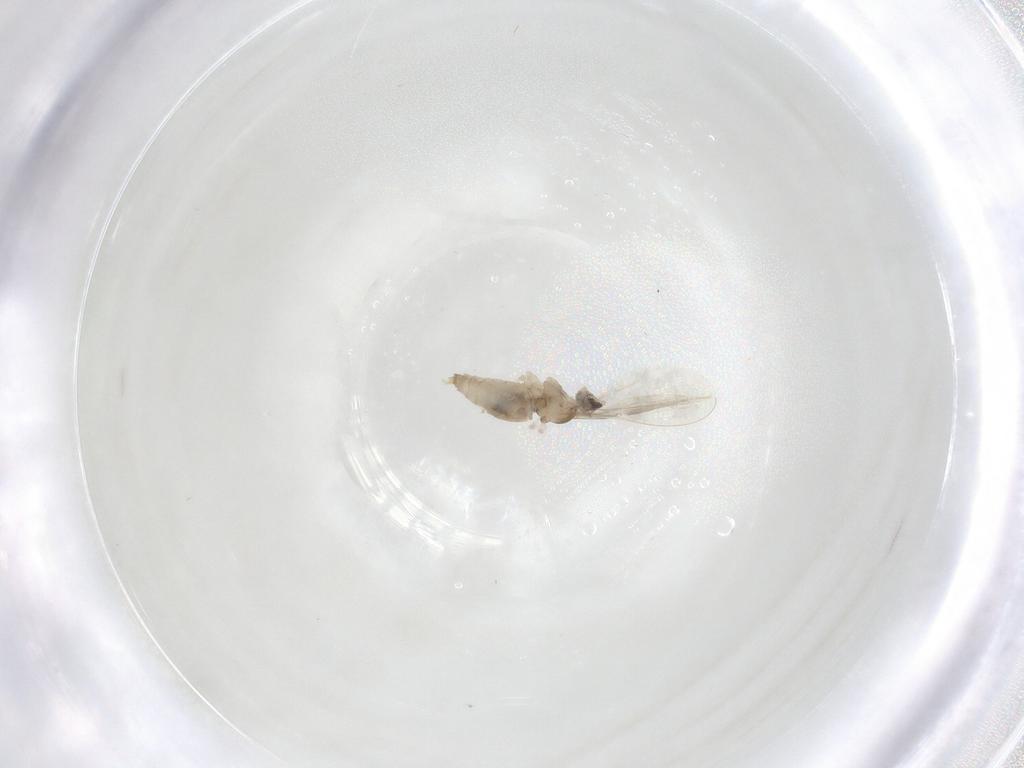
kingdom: Animalia
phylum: Arthropoda
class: Insecta
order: Diptera
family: Cecidomyiidae
